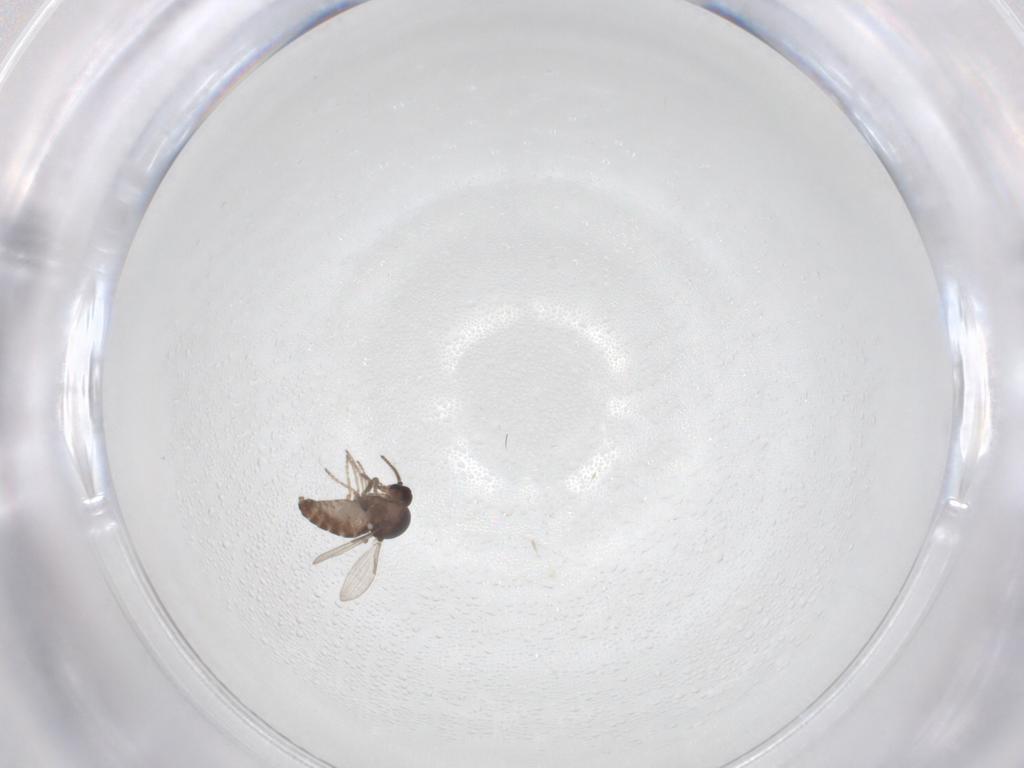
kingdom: Animalia
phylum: Arthropoda
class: Insecta
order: Diptera
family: Ceratopogonidae
